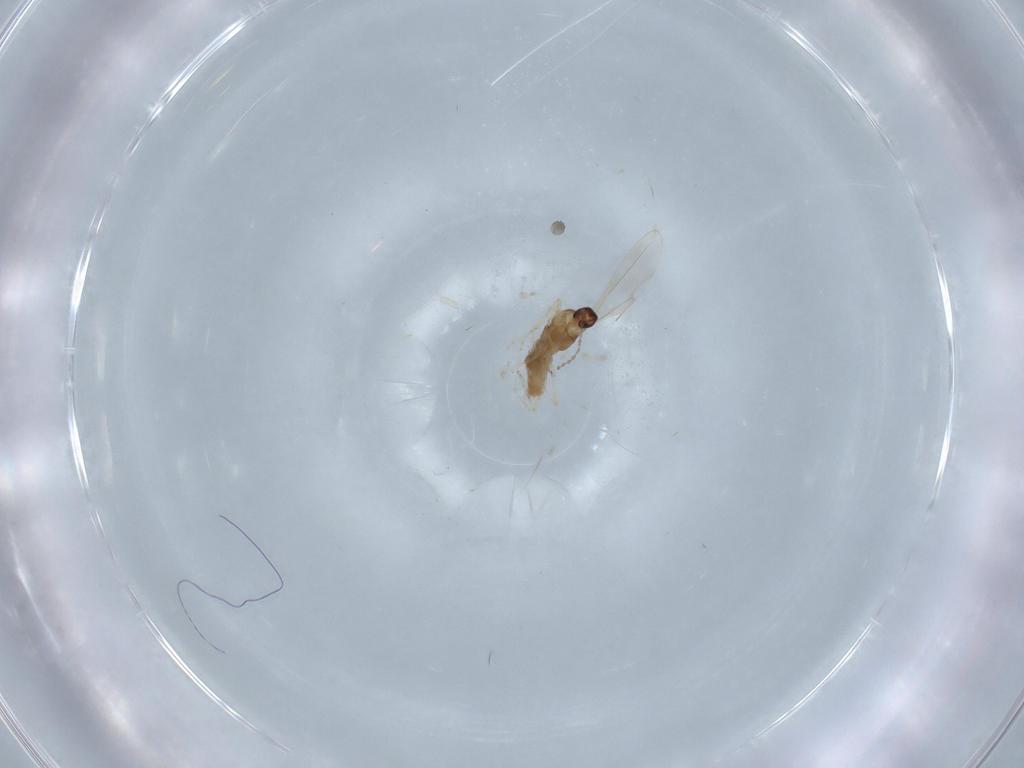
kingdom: Animalia
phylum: Arthropoda
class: Insecta
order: Diptera
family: Cecidomyiidae
